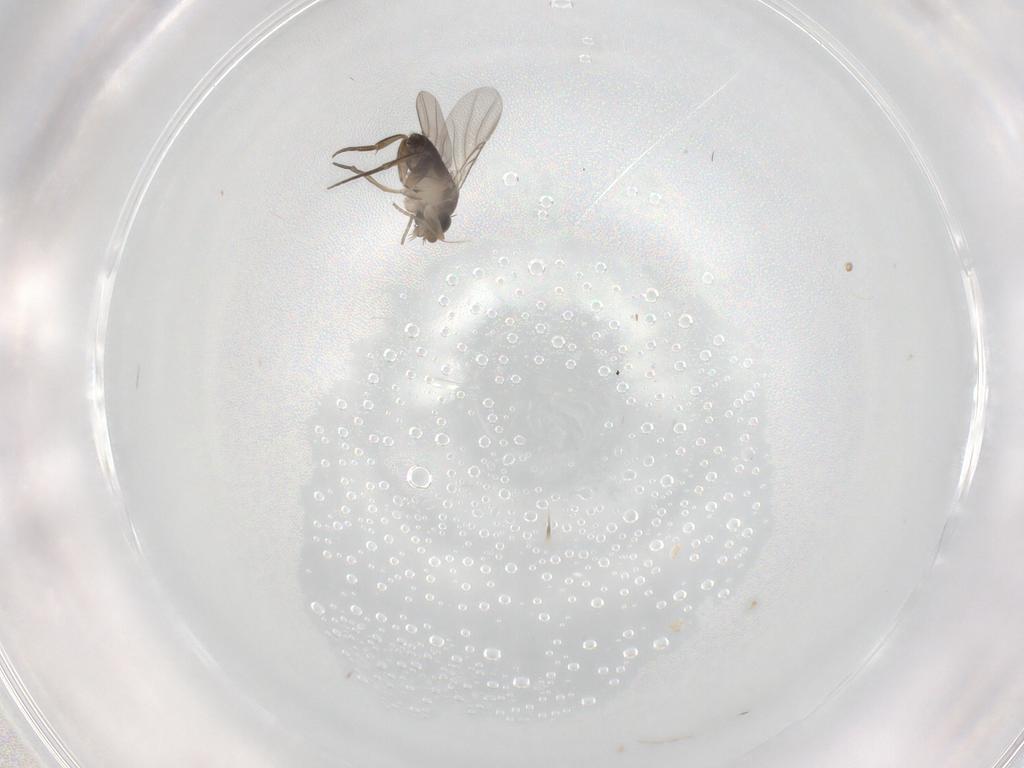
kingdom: Animalia
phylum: Arthropoda
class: Insecta
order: Diptera
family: Phoridae
